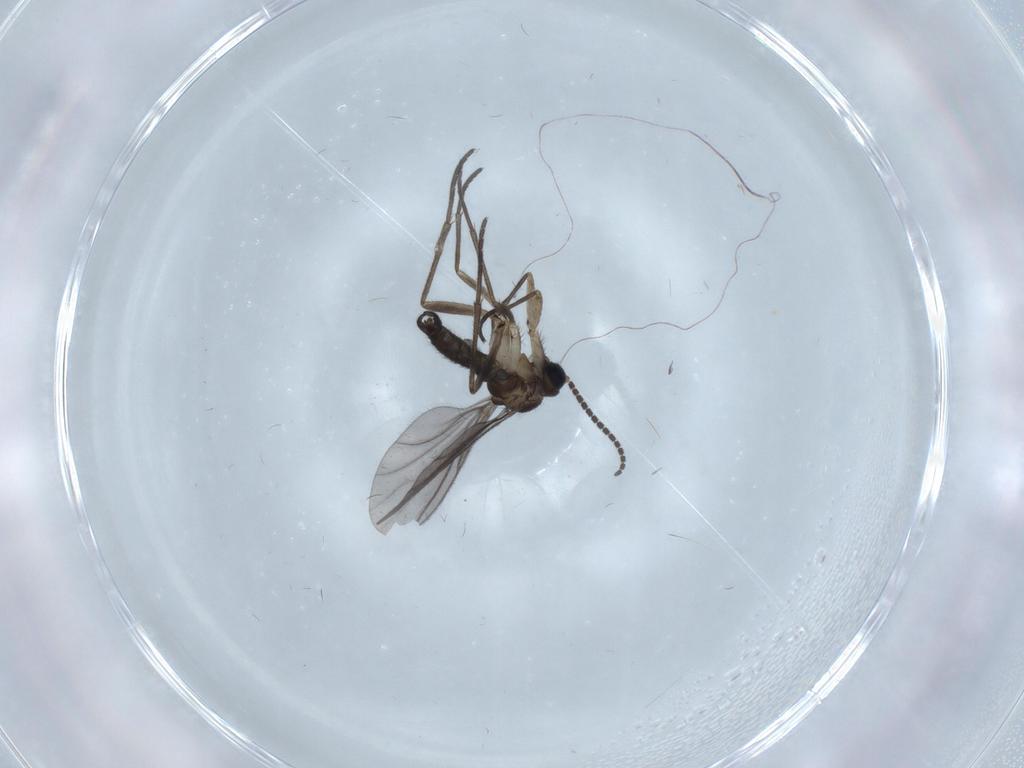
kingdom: Animalia
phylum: Arthropoda
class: Insecta
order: Diptera
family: Sciaridae
